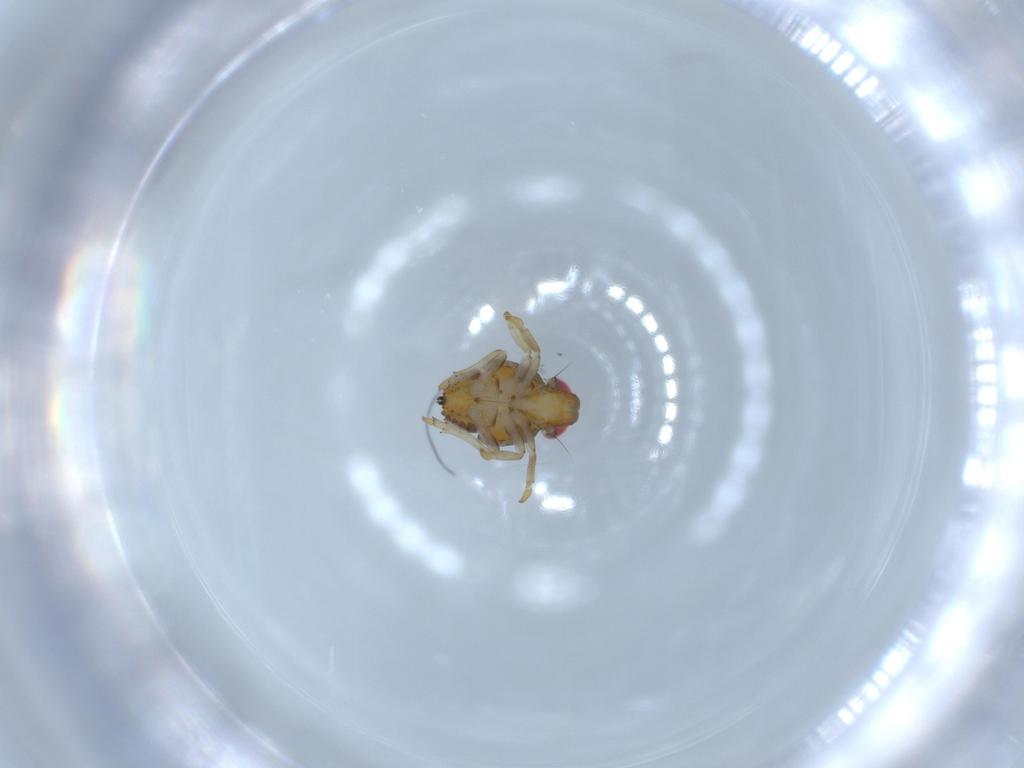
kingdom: Animalia
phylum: Arthropoda
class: Insecta
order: Hemiptera
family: Issidae
